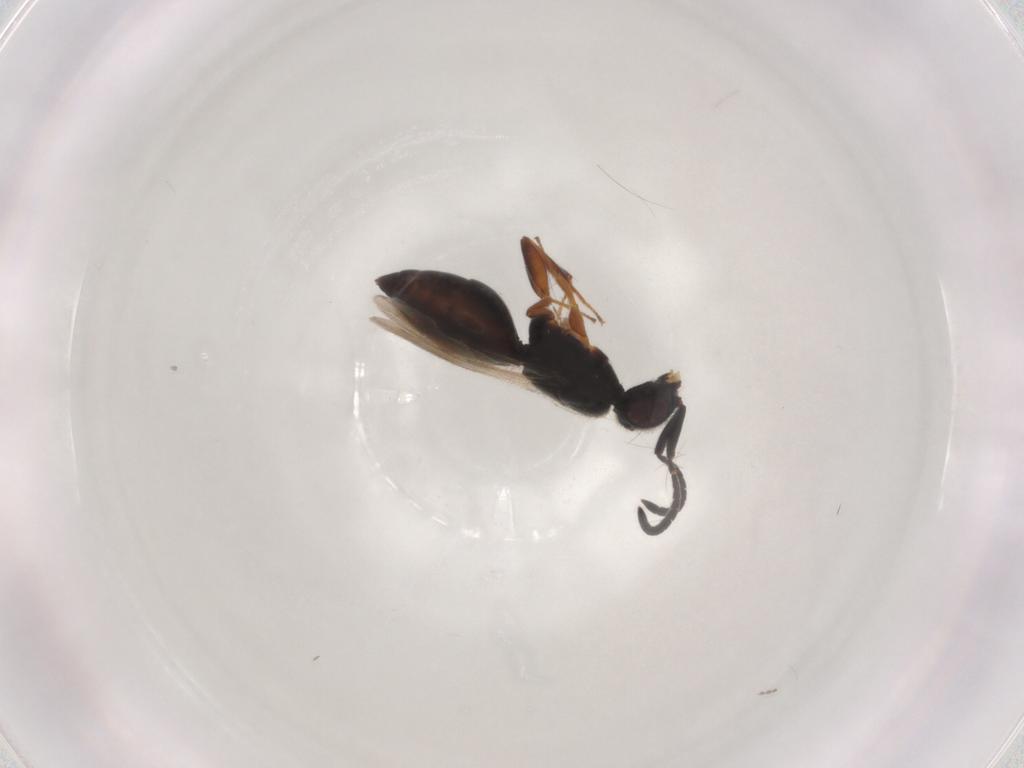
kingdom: Animalia
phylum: Arthropoda
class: Insecta
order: Hymenoptera
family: Megaspilidae
